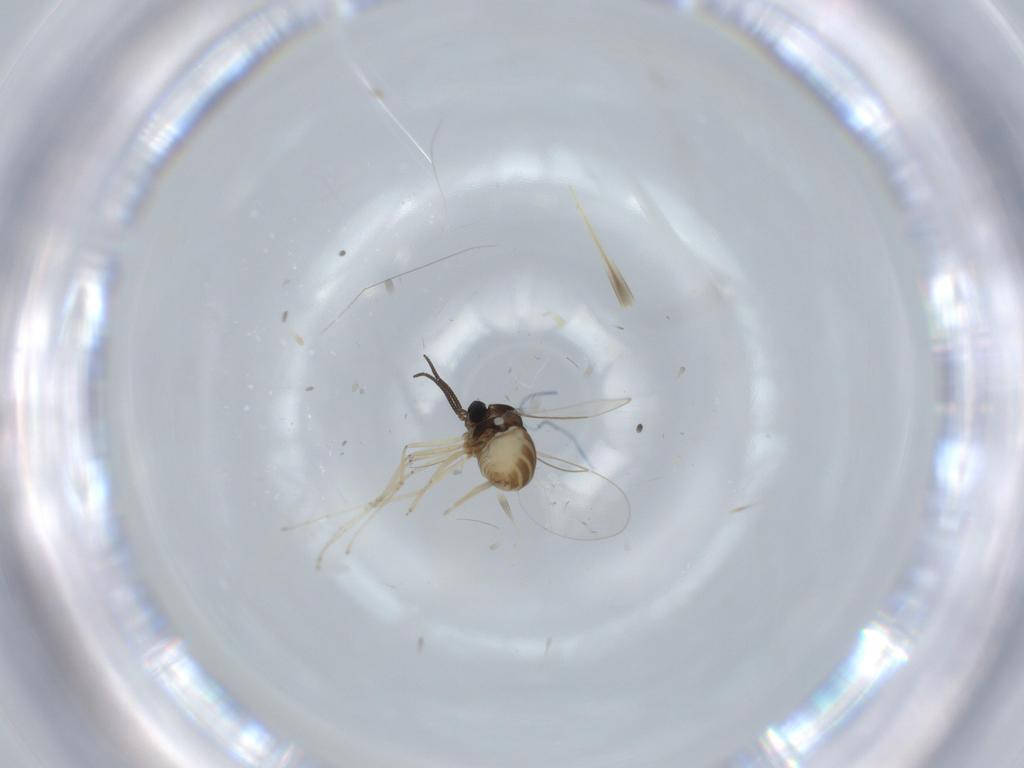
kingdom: Animalia
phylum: Arthropoda
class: Insecta
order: Diptera
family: Cecidomyiidae
